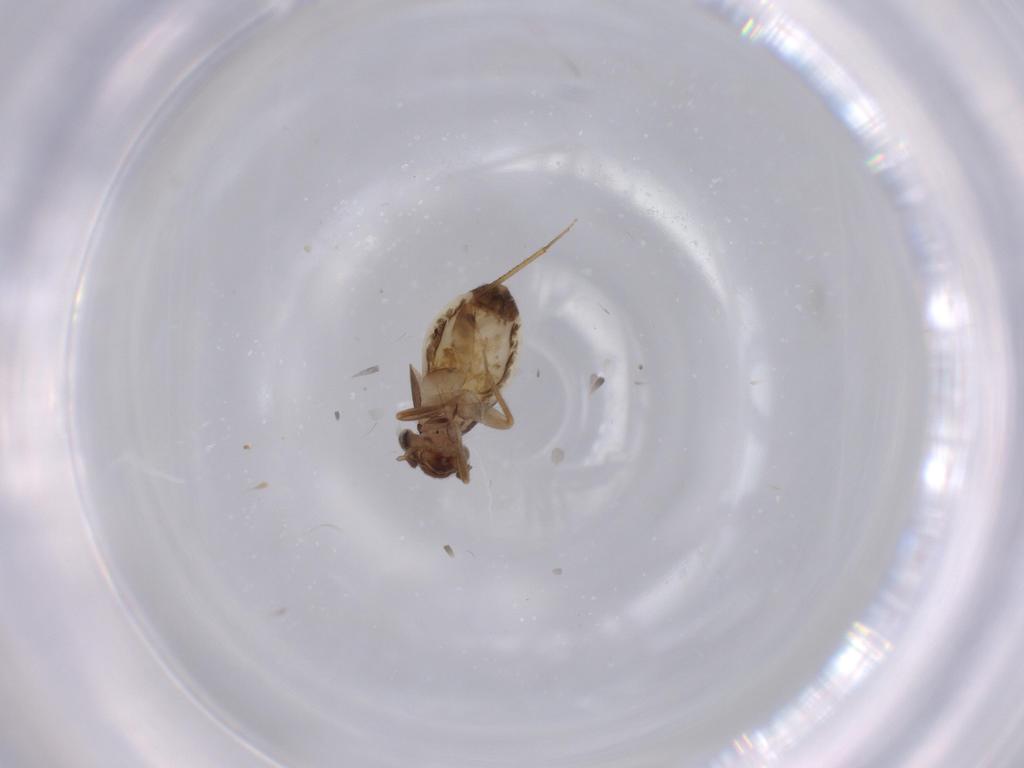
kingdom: Animalia
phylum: Arthropoda
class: Insecta
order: Psocodea
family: Lepidopsocidae
